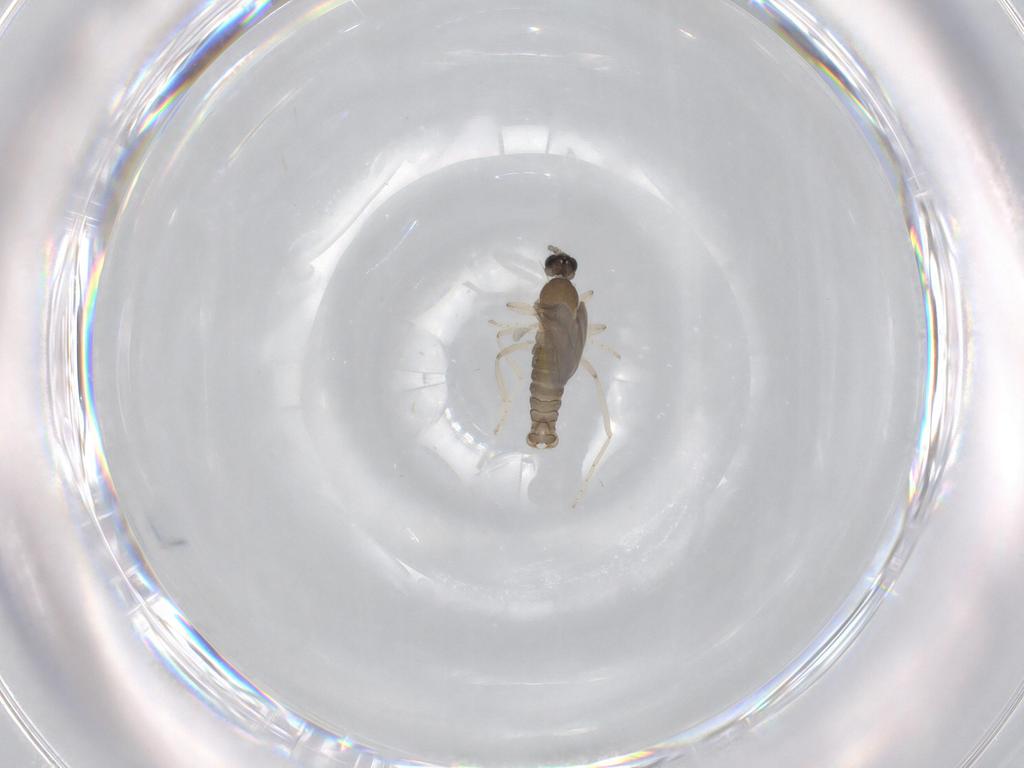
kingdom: Animalia
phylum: Arthropoda
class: Insecta
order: Diptera
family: Cecidomyiidae
